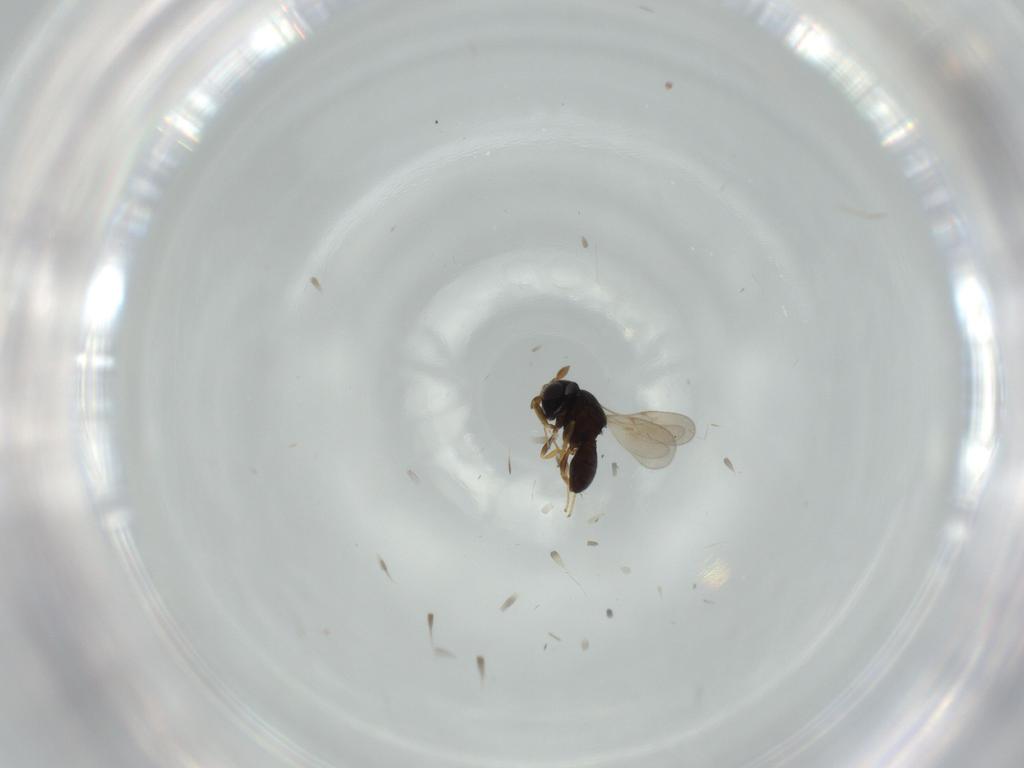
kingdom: Animalia
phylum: Arthropoda
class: Insecta
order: Hymenoptera
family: Scelionidae
